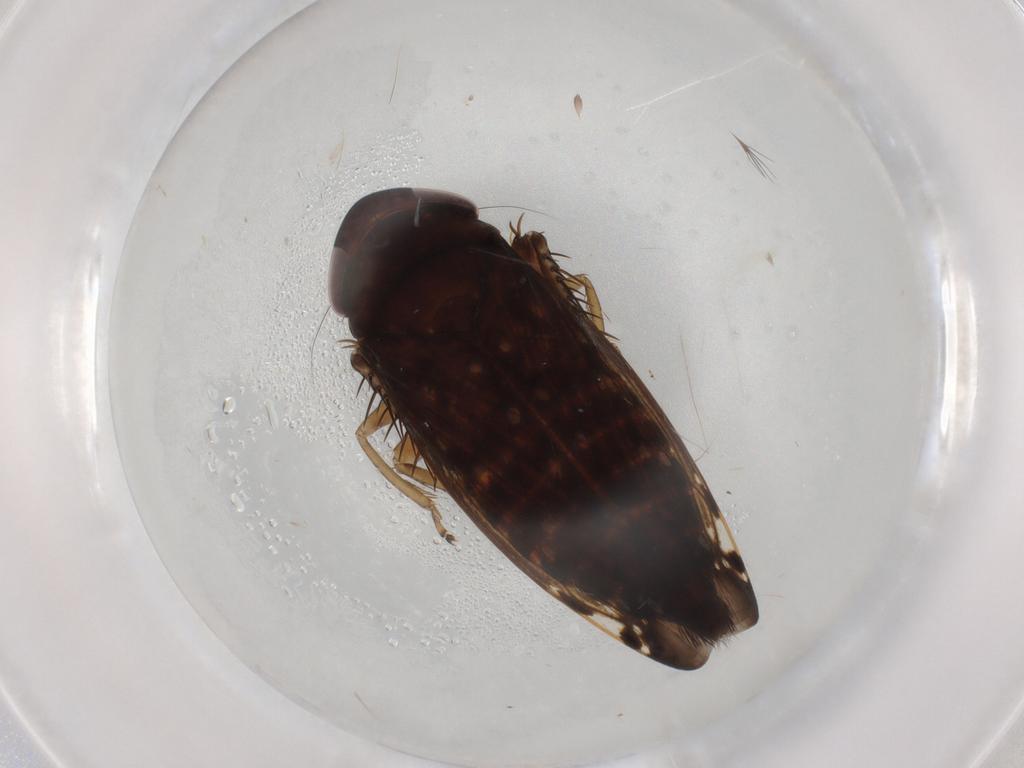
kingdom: Animalia
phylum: Arthropoda
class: Insecta
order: Hemiptera
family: Cicadellidae
